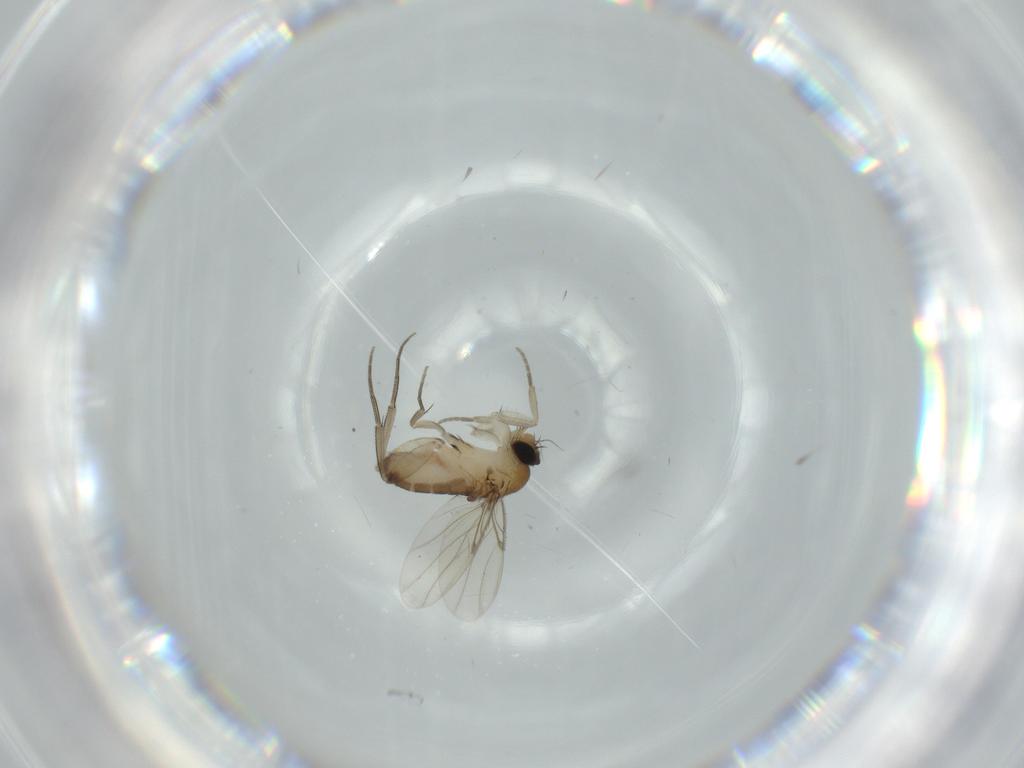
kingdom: Animalia
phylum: Arthropoda
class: Insecta
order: Diptera
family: Phoridae
